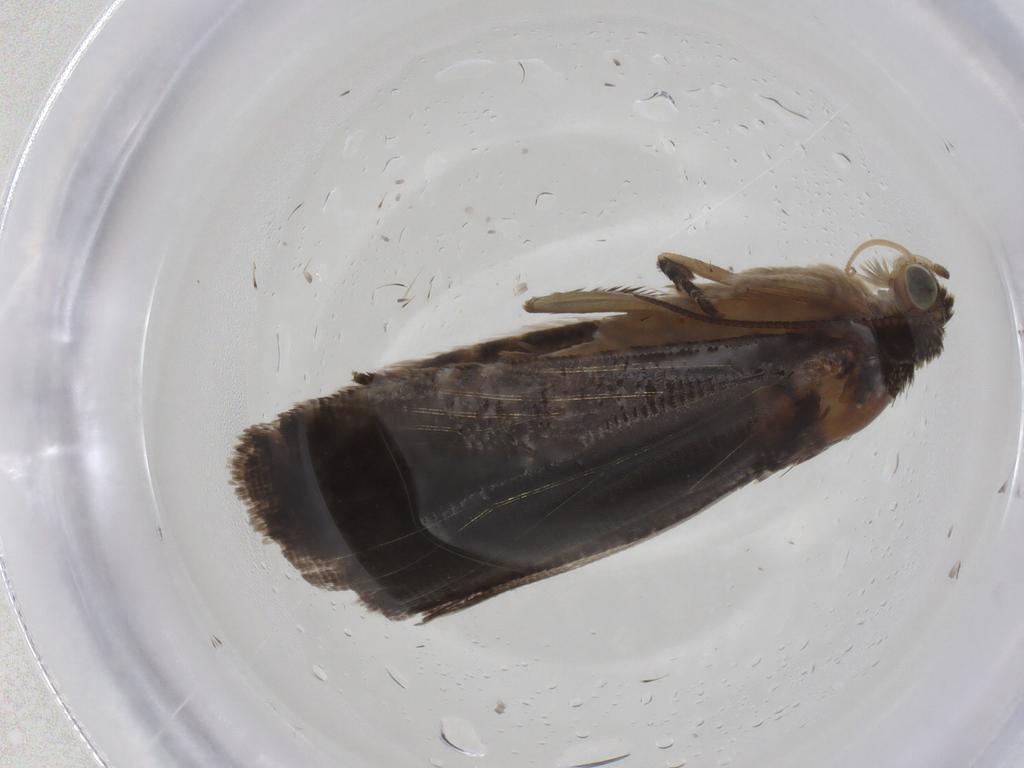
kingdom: Animalia
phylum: Arthropoda
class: Insecta
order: Lepidoptera
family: Tortricidae
